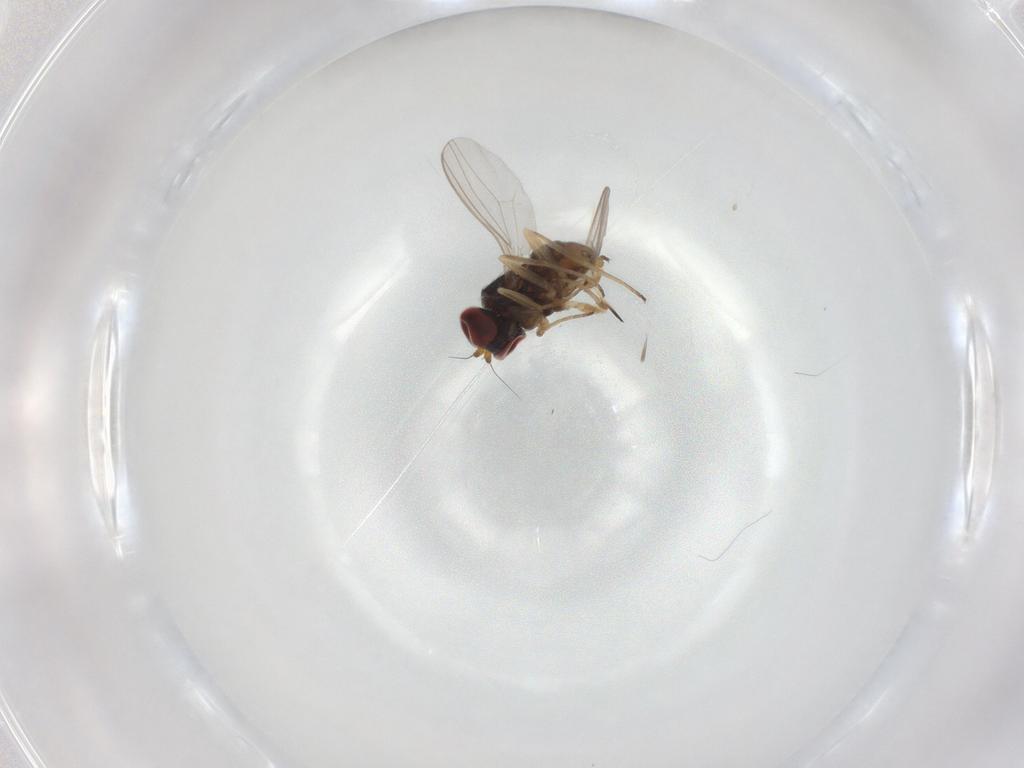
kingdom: Animalia
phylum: Arthropoda
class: Insecta
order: Diptera
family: Dolichopodidae
